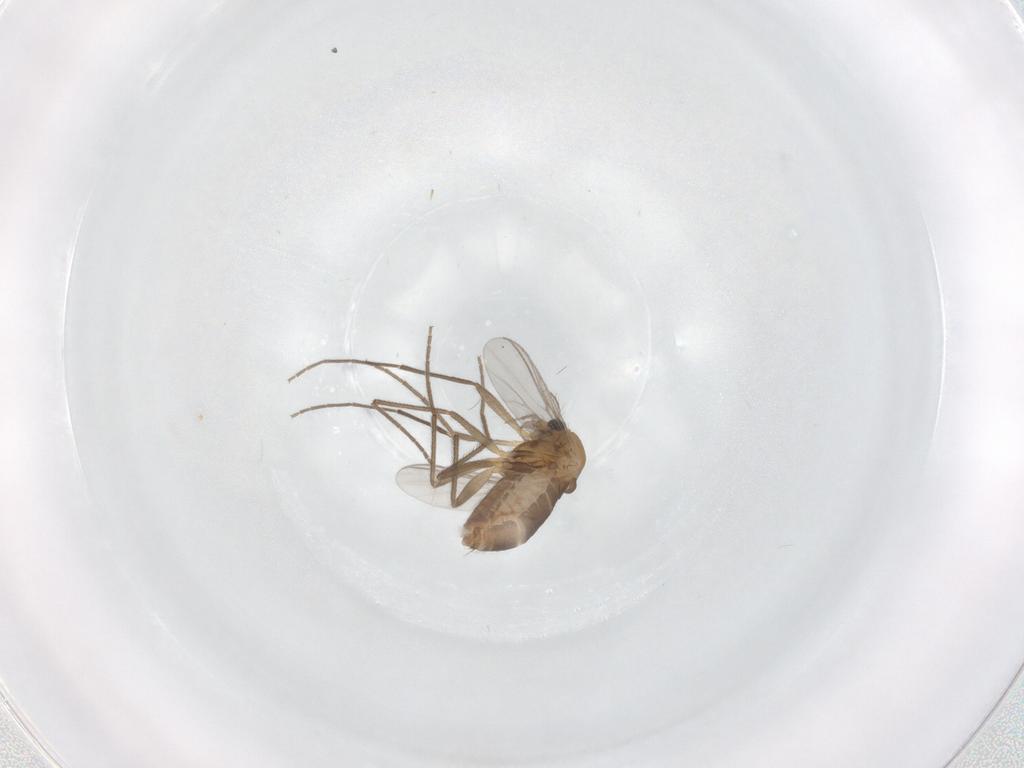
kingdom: Animalia
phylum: Arthropoda
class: Insecta
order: Diptera
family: Chironomidae
